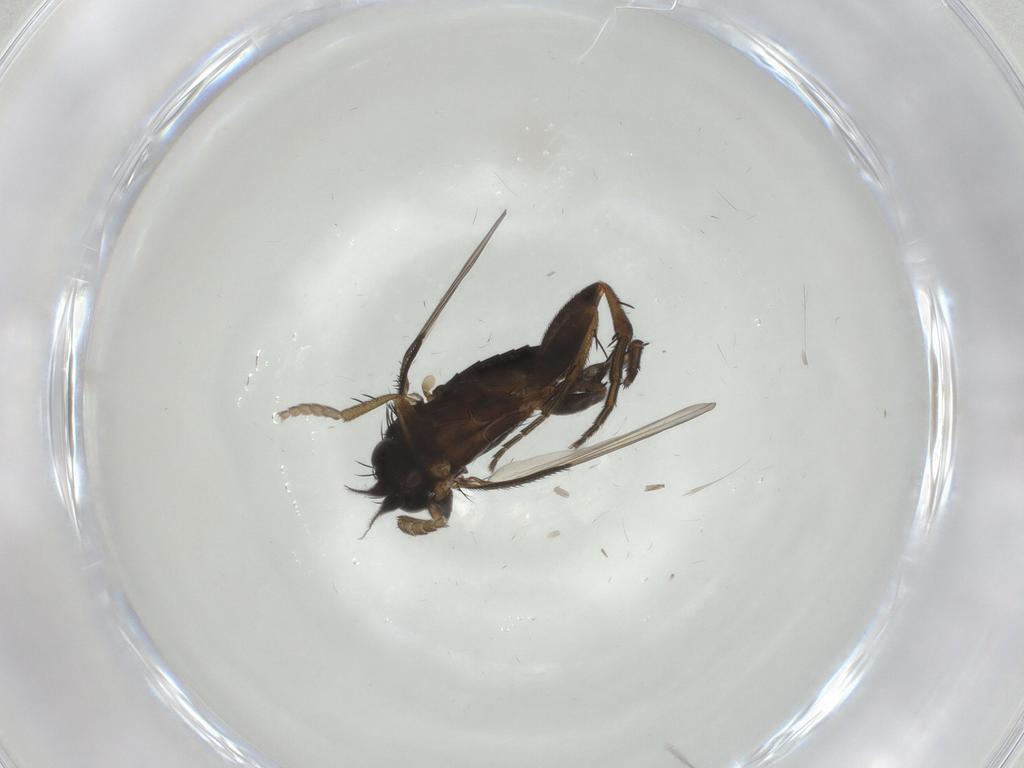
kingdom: Animalia
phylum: Arthropoda
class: Insecta
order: Diptera
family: Phoridae
